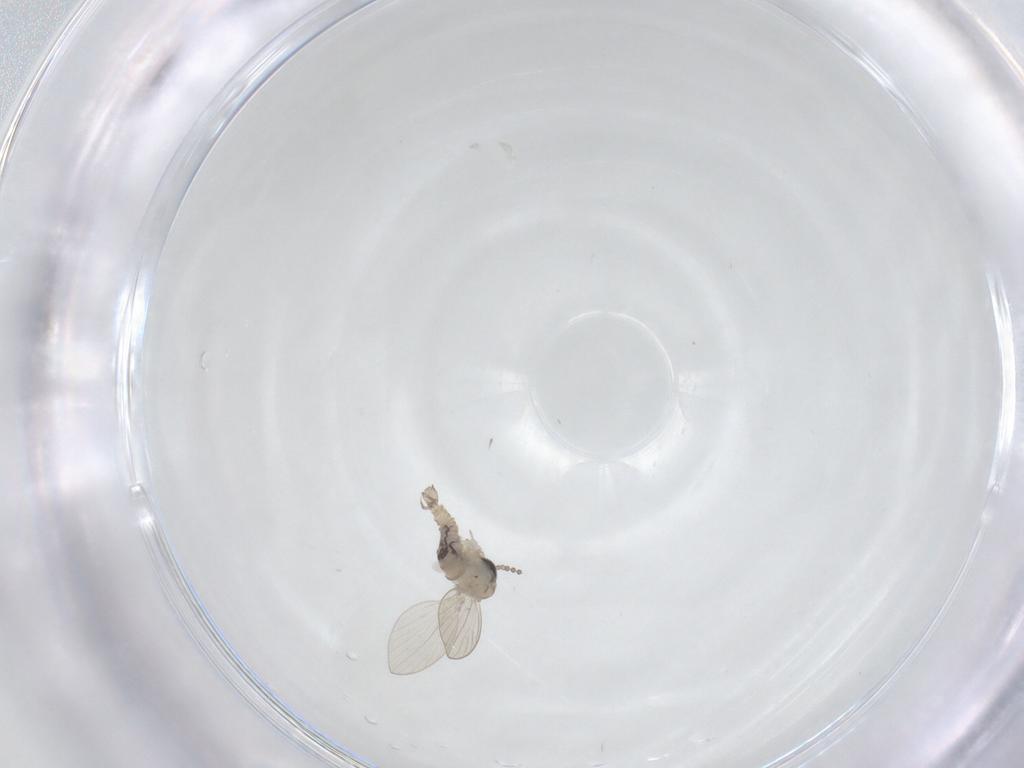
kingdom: Animalia
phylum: Arthropoda
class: Insecta
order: Diptera
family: Psychodidae
